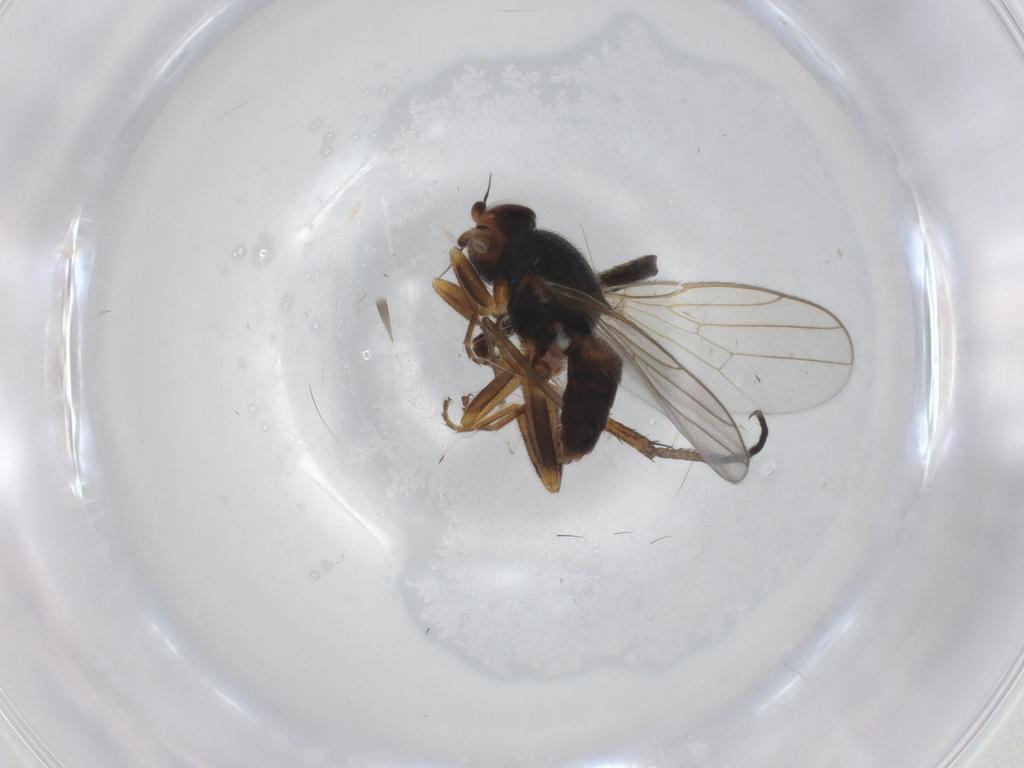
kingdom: Animalia
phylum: Arthropoda
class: Insecta
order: Diptera
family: Chloropidae
